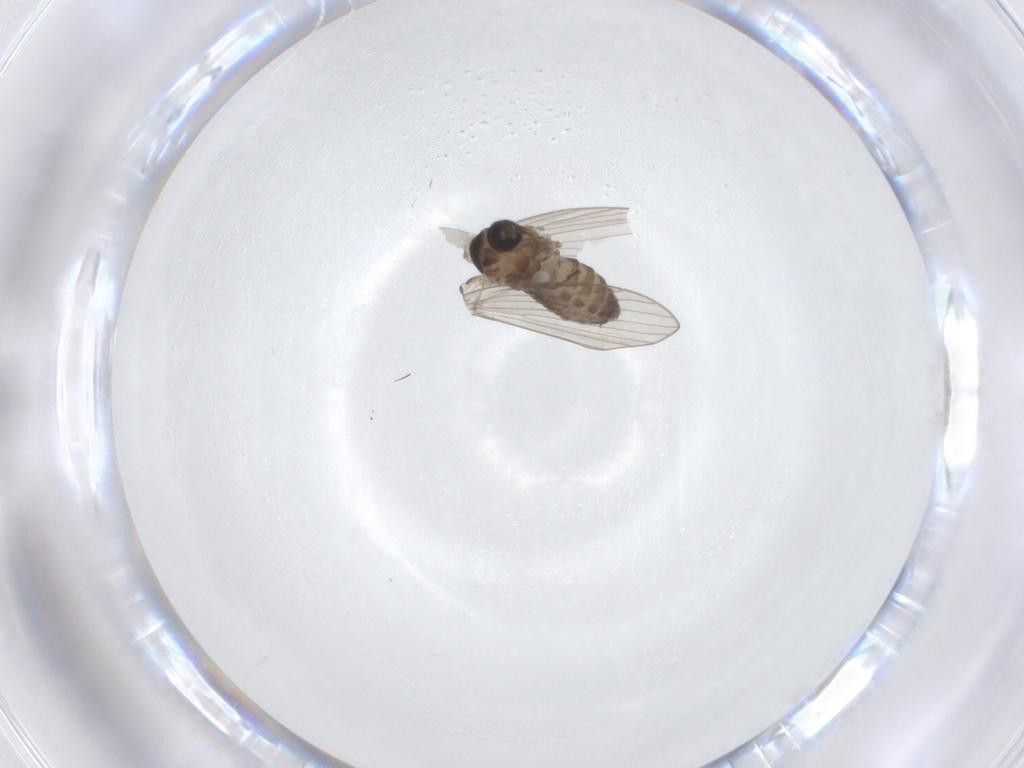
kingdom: Animalia
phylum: Arthropoda
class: Insecta
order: Diptera
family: Psychodidae
